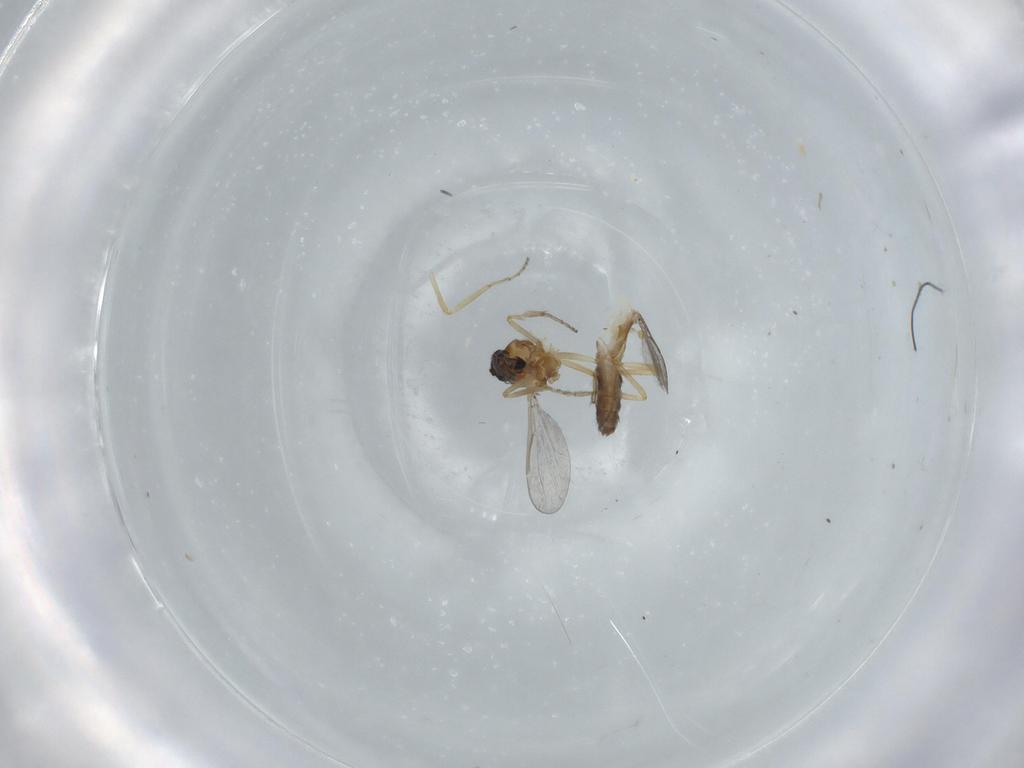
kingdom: Animalia
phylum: Arthropoda
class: Insecta
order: Diptera
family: Ceratopogonidae
